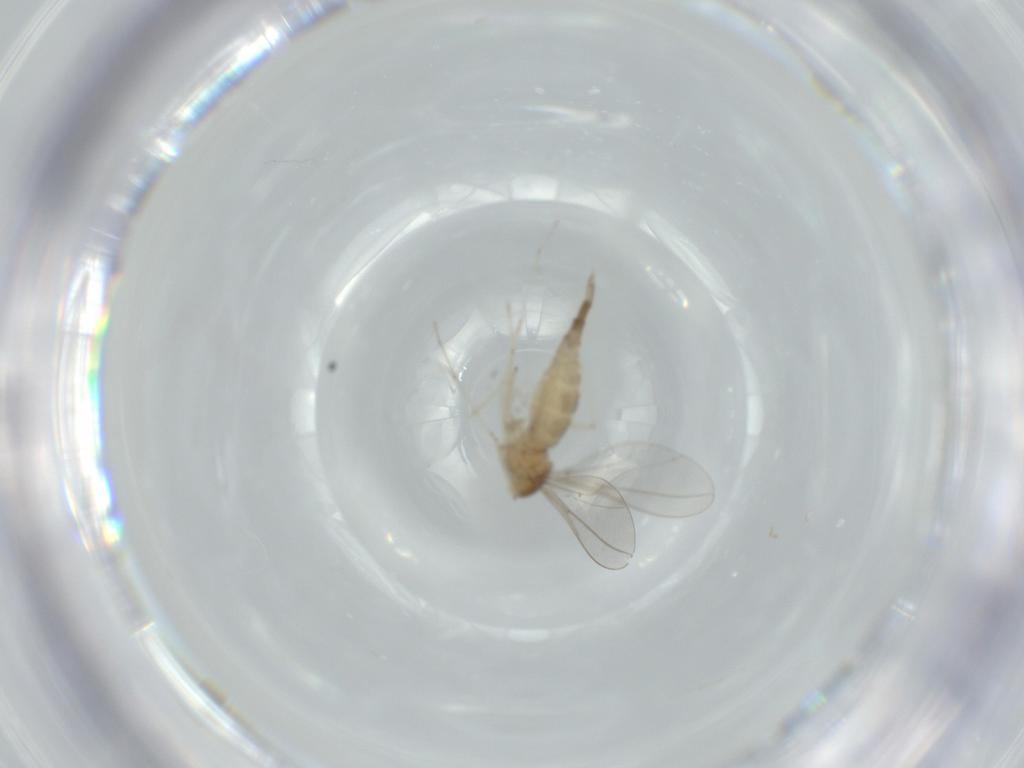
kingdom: Animalia
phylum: Arthropoda
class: Insecta
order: Diptera
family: Cecidomyiidae
